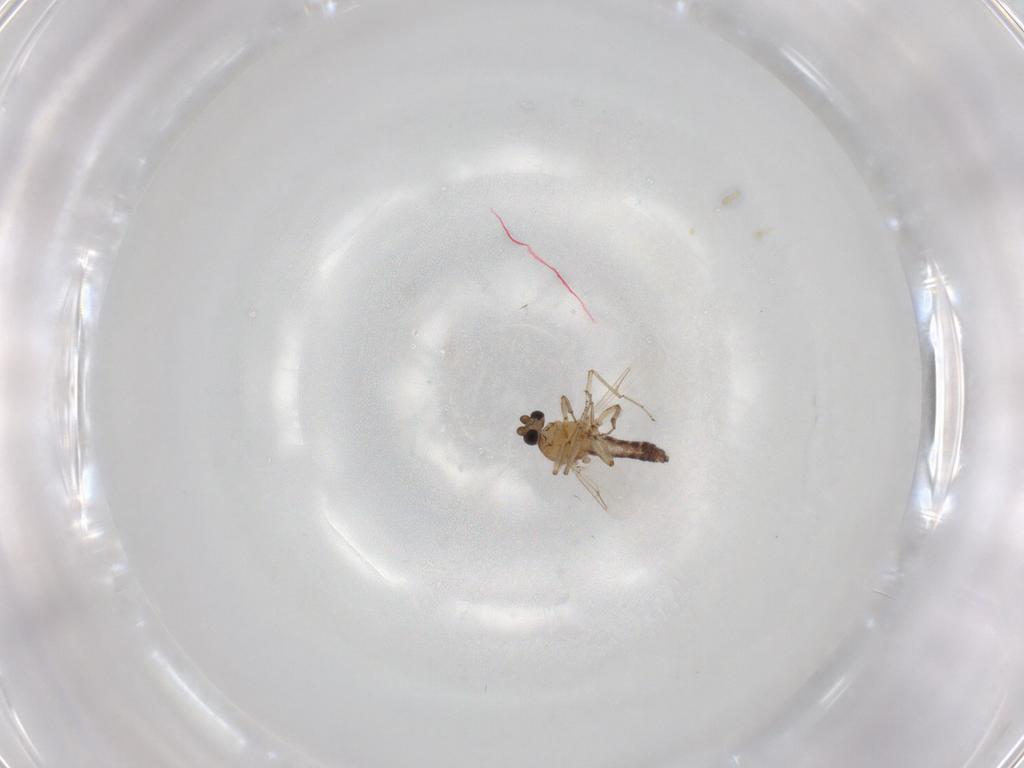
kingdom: Animalia
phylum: Arthropoda
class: Insecta
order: Diptera
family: Ceratopogonidae
